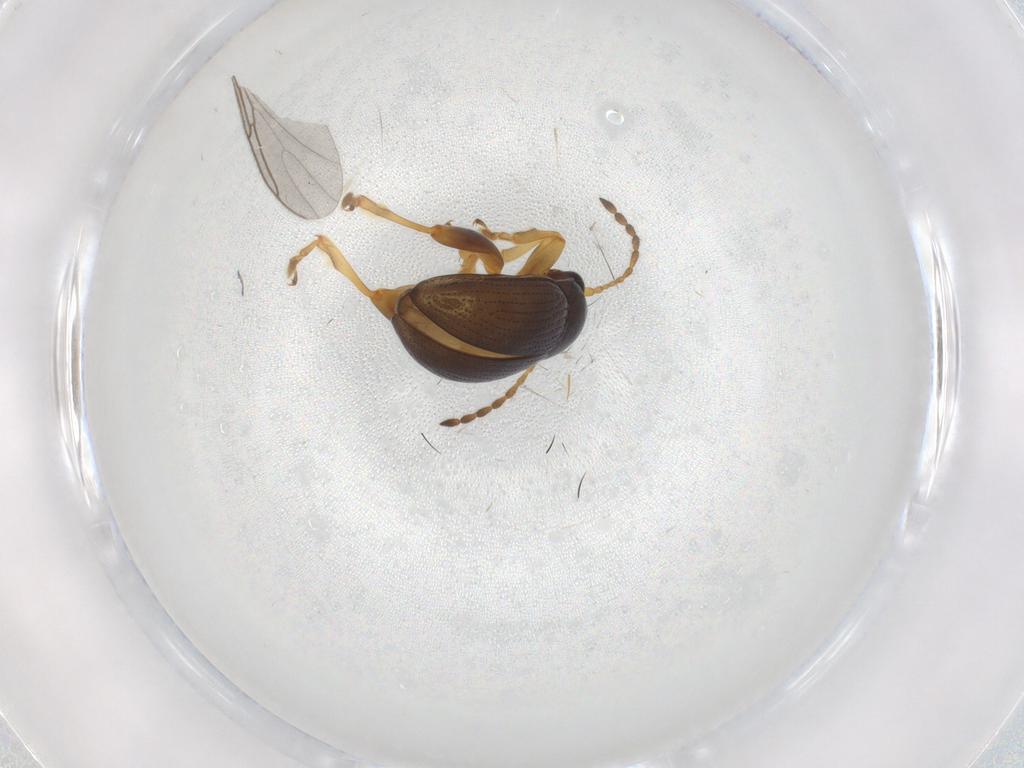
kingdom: Animalia
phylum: Arthropoda
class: Insecta
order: Coleoptera
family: Chrysomelidae
